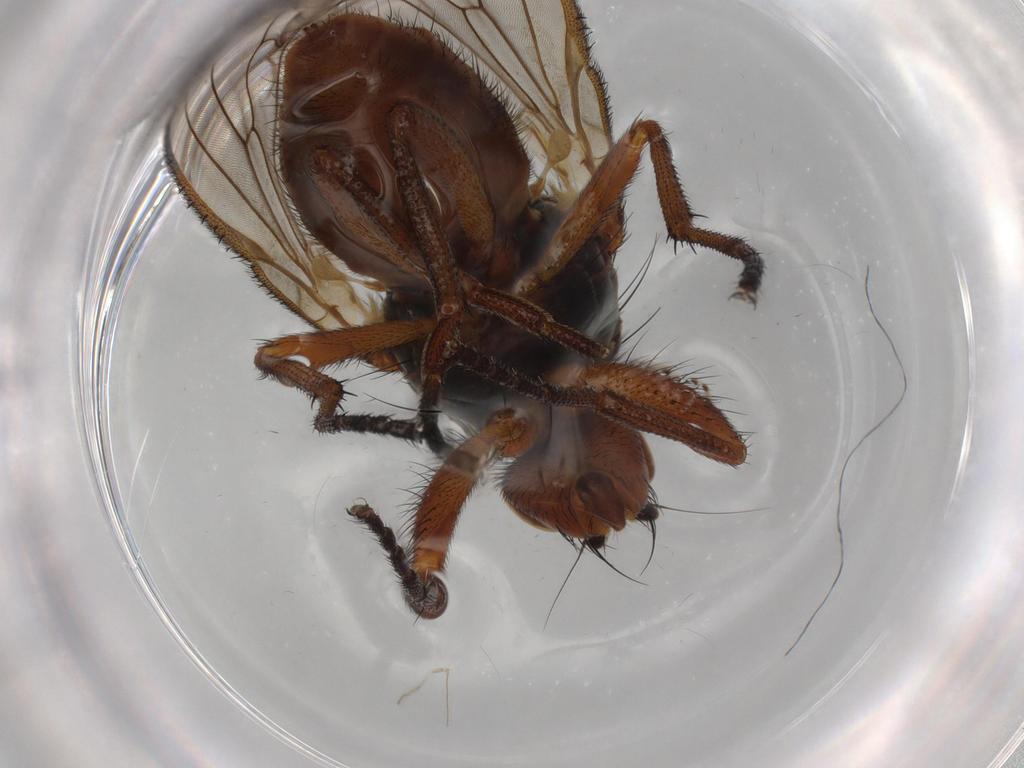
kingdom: Animalia
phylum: Arthropoda
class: Insecta
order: Diptera
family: Heleomyzidae
